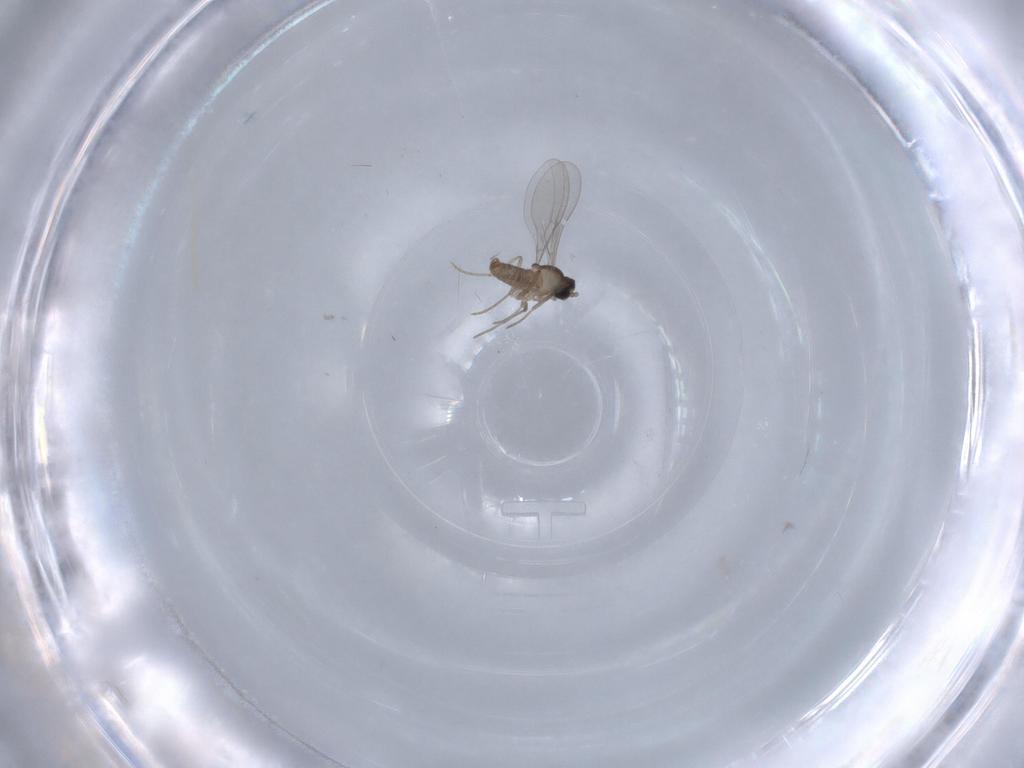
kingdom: Animalia
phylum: Arthropoda
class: Insecta
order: Diptera
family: Cecidomyiidae
